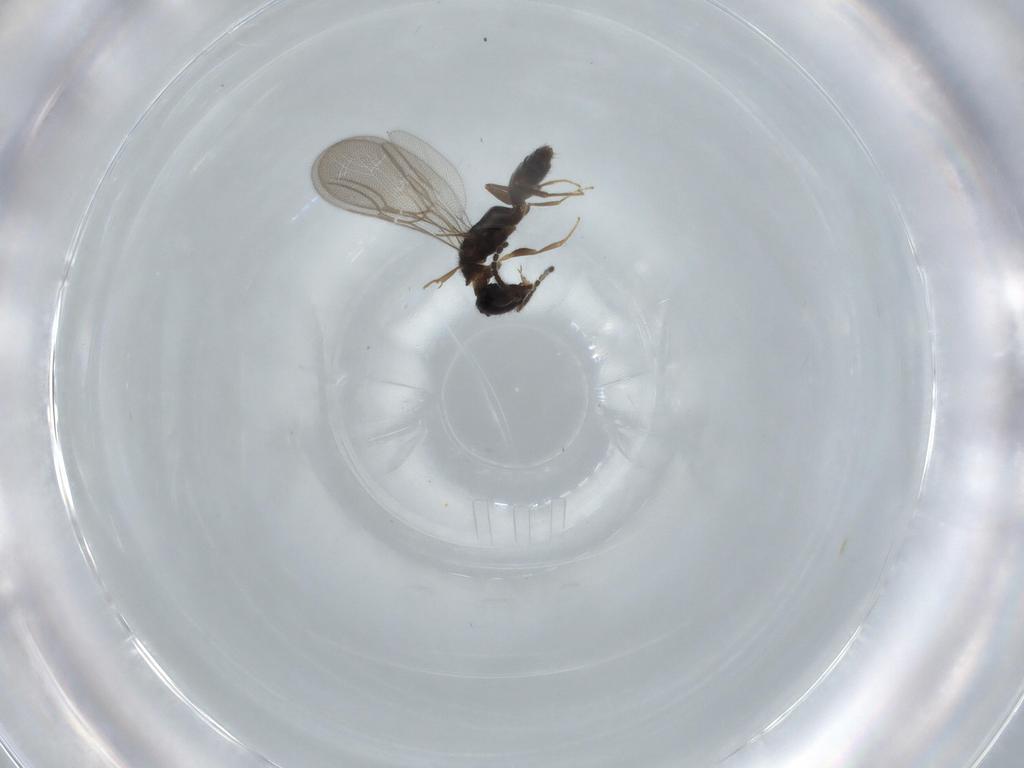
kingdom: Animalia
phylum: Arthropoda
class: Insecta
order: Hymenoptera
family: Bethylidae
